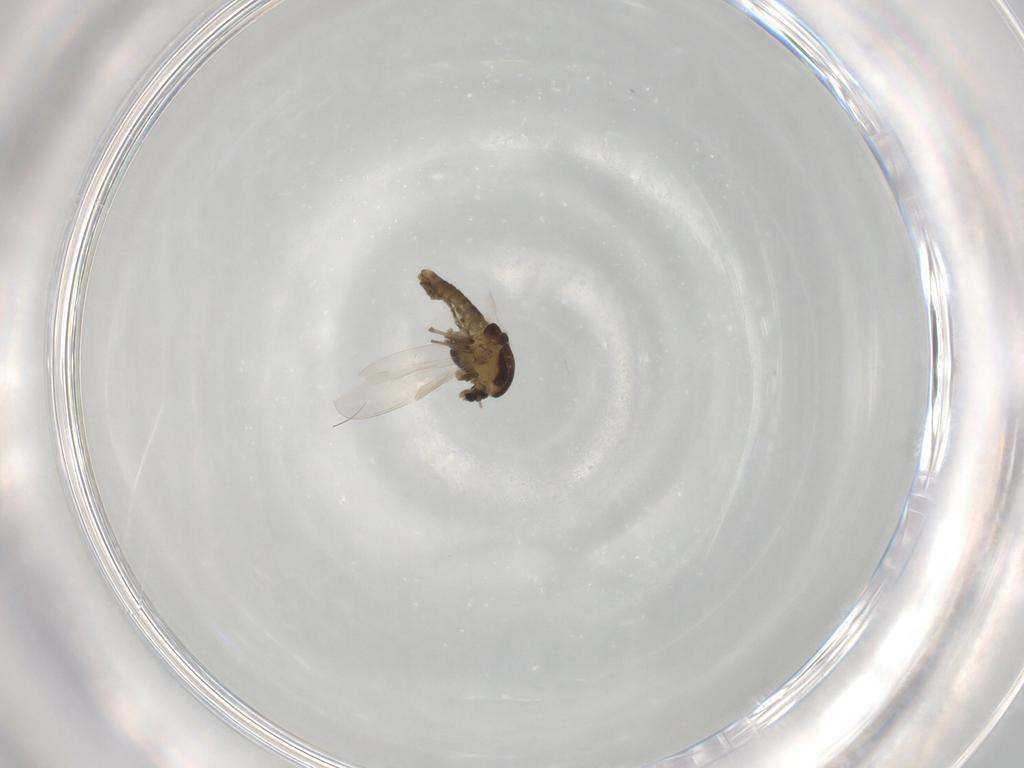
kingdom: Animalia
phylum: Arthropoda
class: Insecta
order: Diptera
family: Chironomidae
